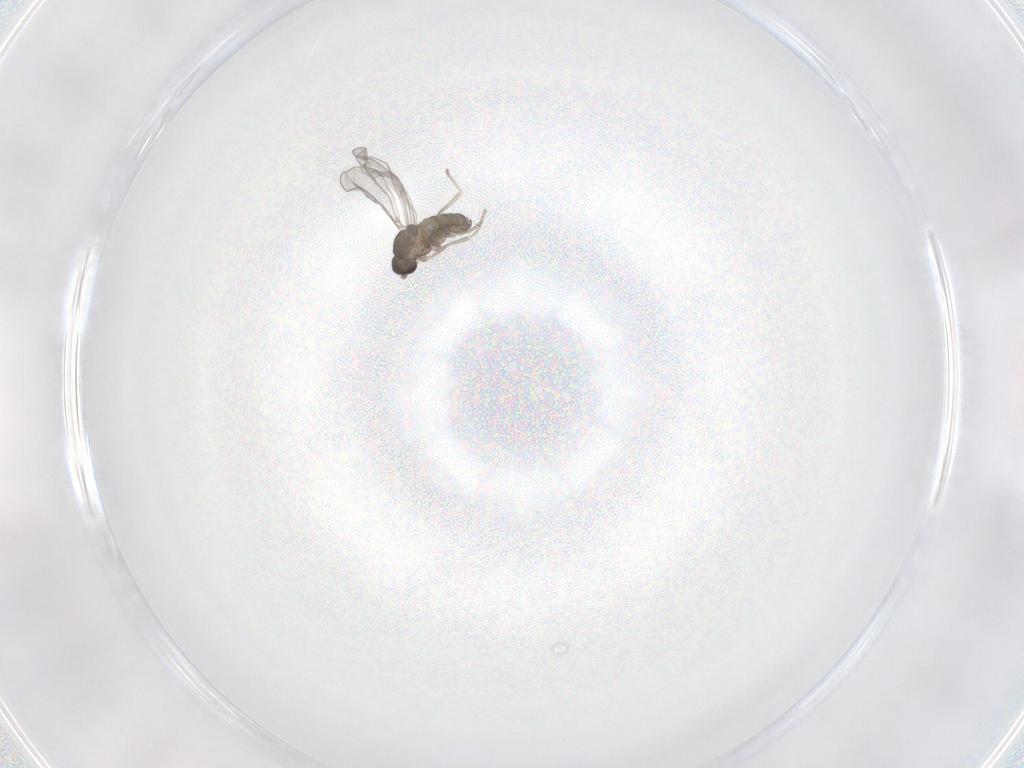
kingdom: Animalia
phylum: Arthropoda
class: Insecta
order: Diptera
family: Cecidomyiidae
